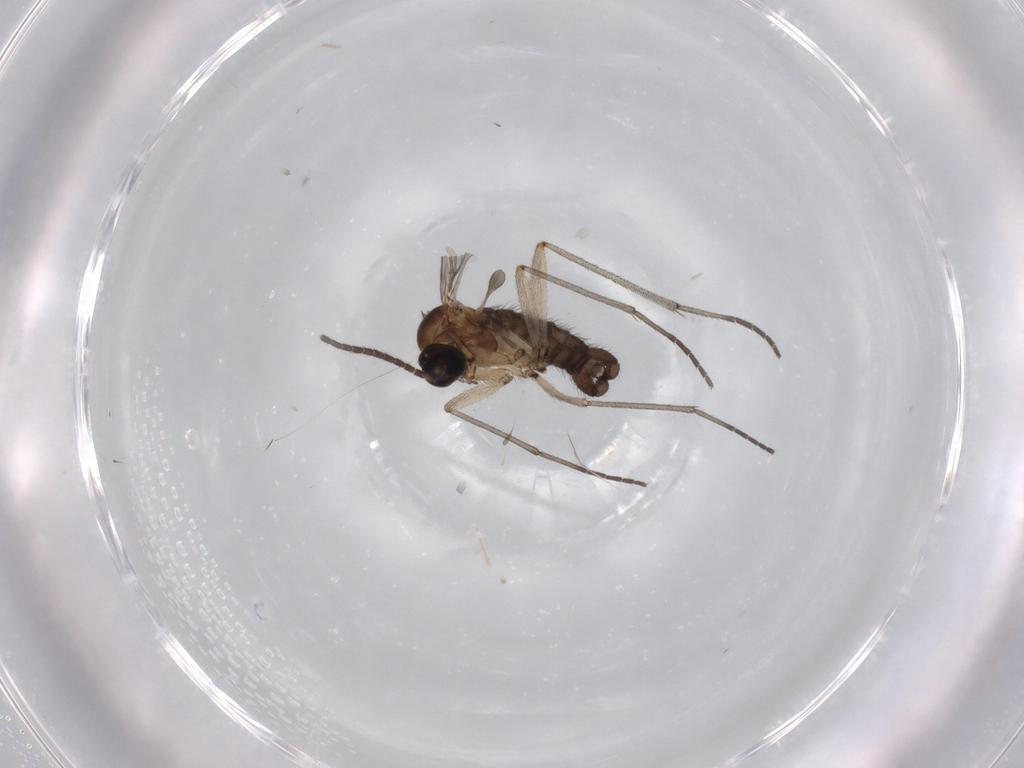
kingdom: Animalia
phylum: Arthropoda
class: Insecta
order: Diptera
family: Sciaridae
